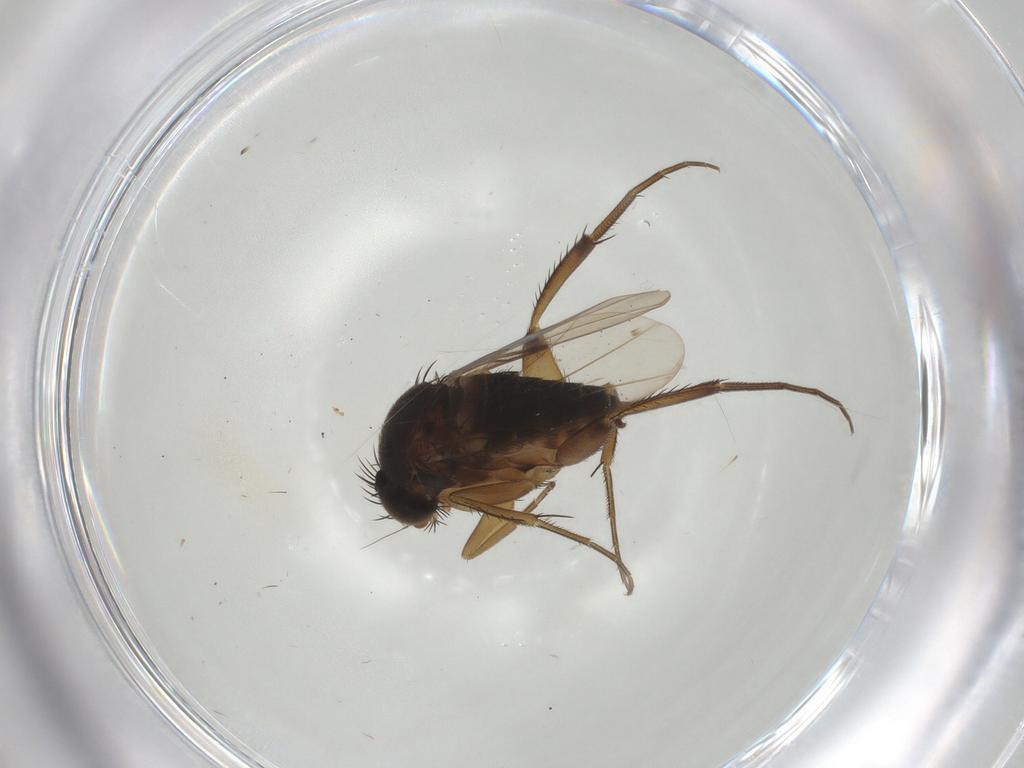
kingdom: Animalia
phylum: Arthropoda
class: Insecta
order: Diptera
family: Phoridae
